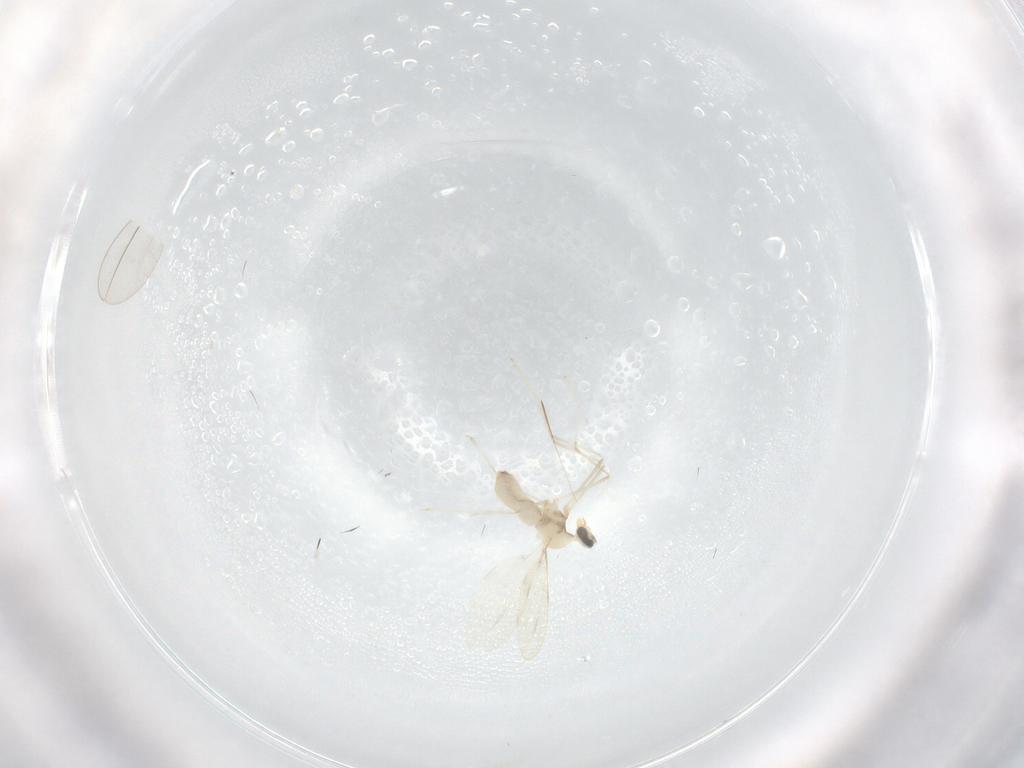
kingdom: Animalia
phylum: Arthropoda
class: Insecta
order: Diptera
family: Cecidomyiidae
